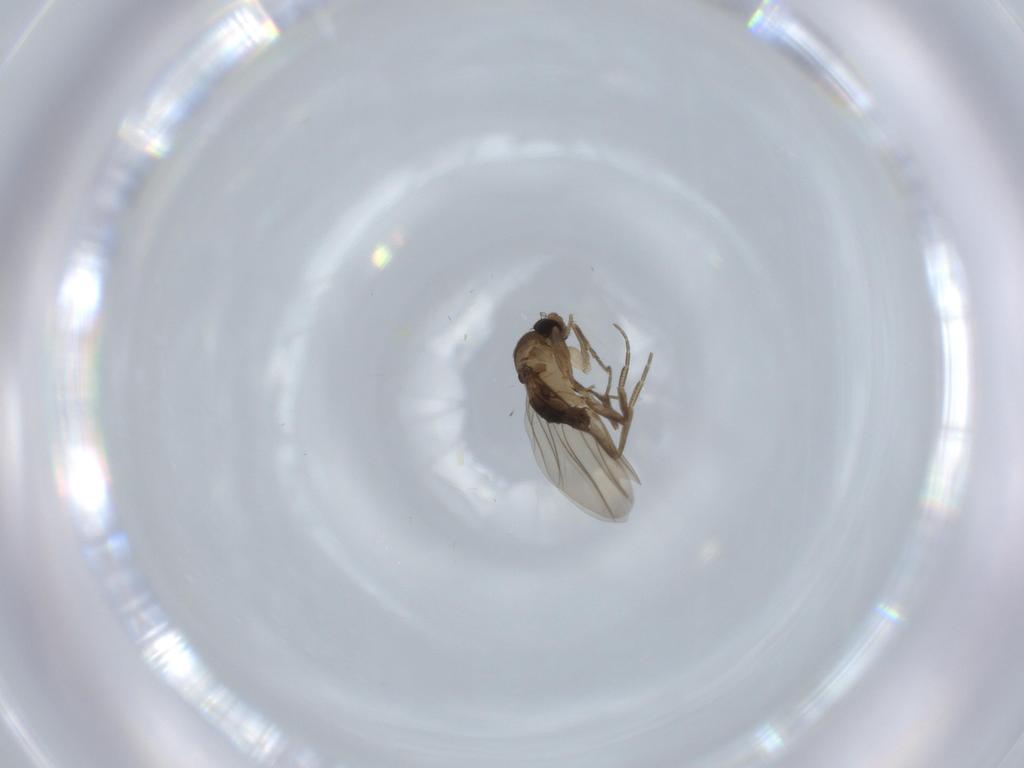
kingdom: Animalia
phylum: Arthropoda
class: Insecta
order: Diptera
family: Phoridae
